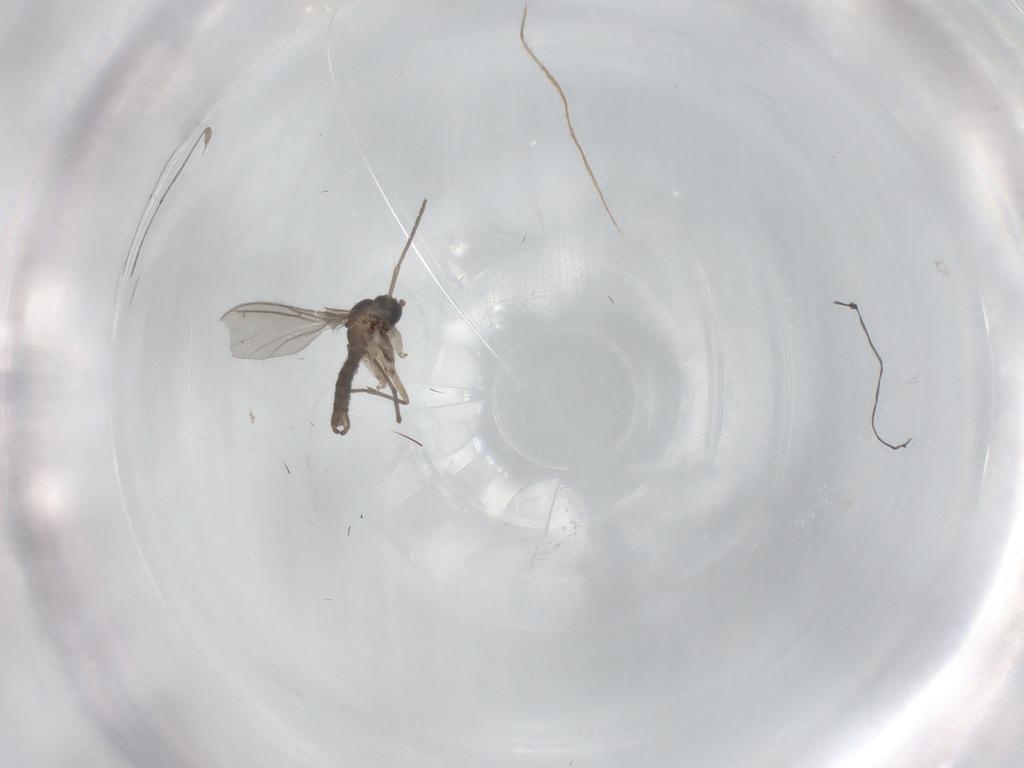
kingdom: Animalia
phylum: Arthropoda
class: Insecta
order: Diptera
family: Sciaridae
